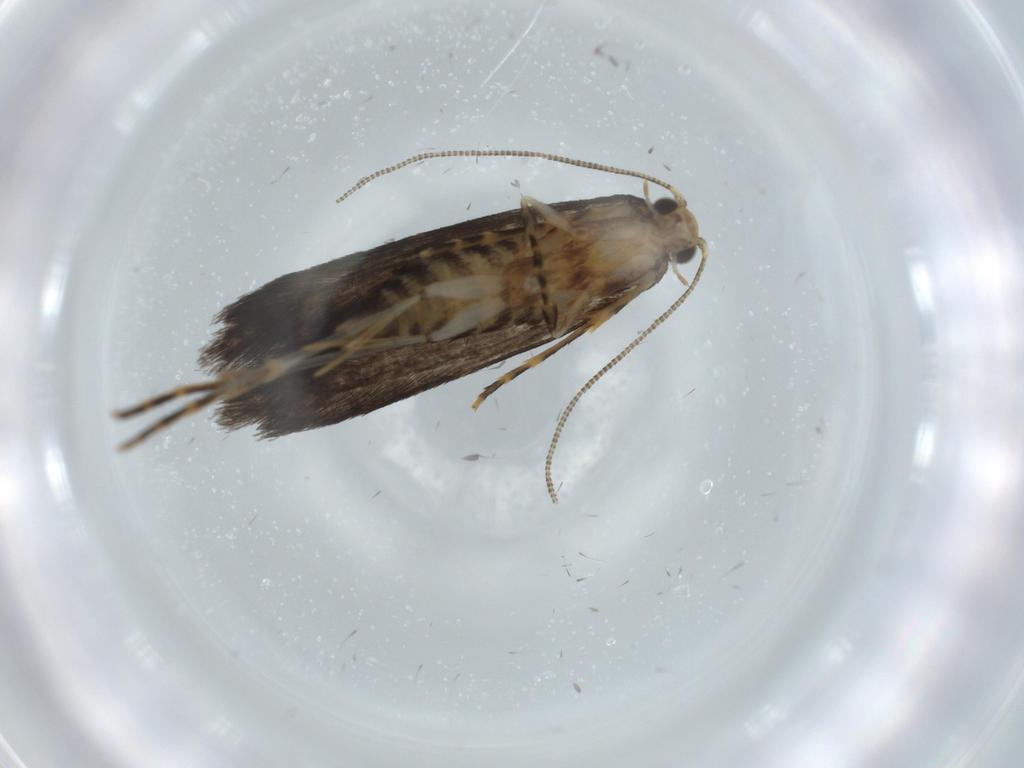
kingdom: Animalia
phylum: Arthropoda
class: Insecta
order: Lepidoptera
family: Tineidae
